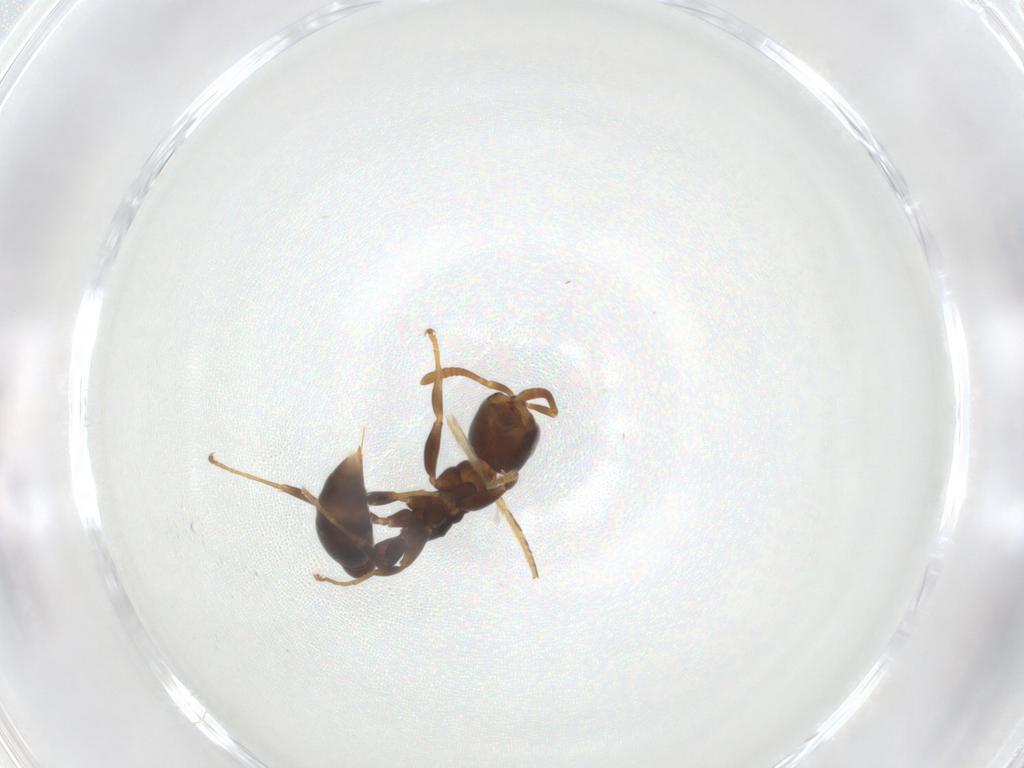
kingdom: Animalia
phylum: Arthropoda
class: Insecta
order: Hymenoptera
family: Formicidae
